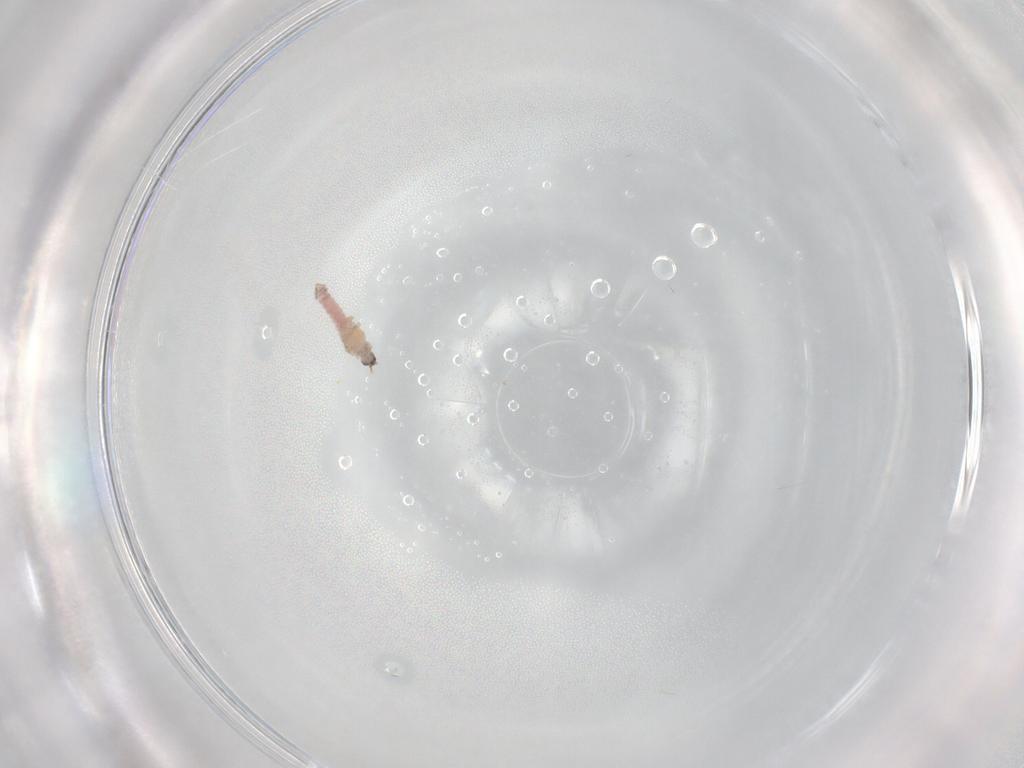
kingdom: Animalia
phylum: Arthropoda
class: Insecta
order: Hemiptera
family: Pseudococcidae
